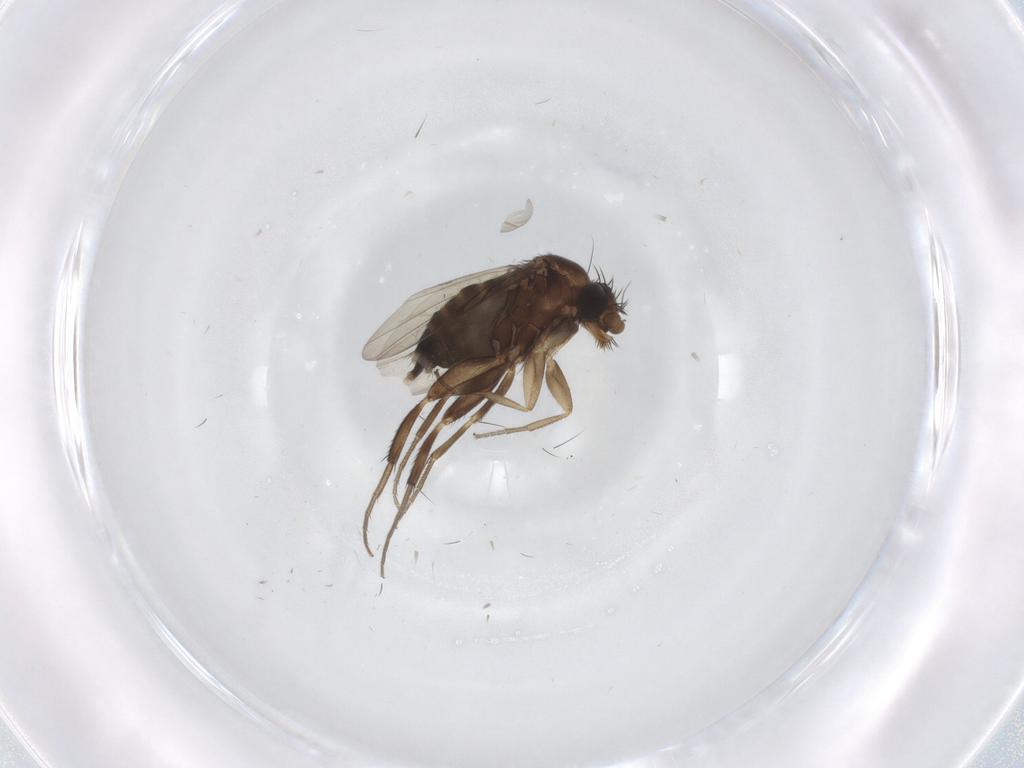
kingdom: Animalia
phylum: Arthropoda
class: Insecta
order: Diptera
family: Phoridae
